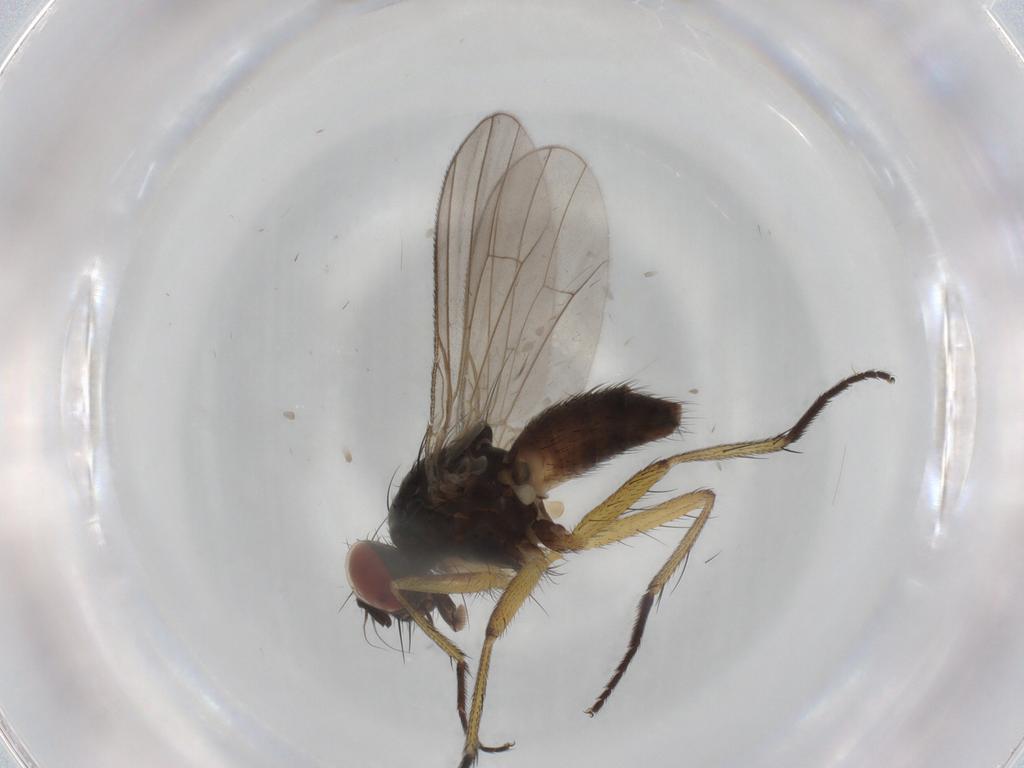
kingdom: Animalia
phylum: Arthropoda
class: Insecta
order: Diptera
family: Muscidae
